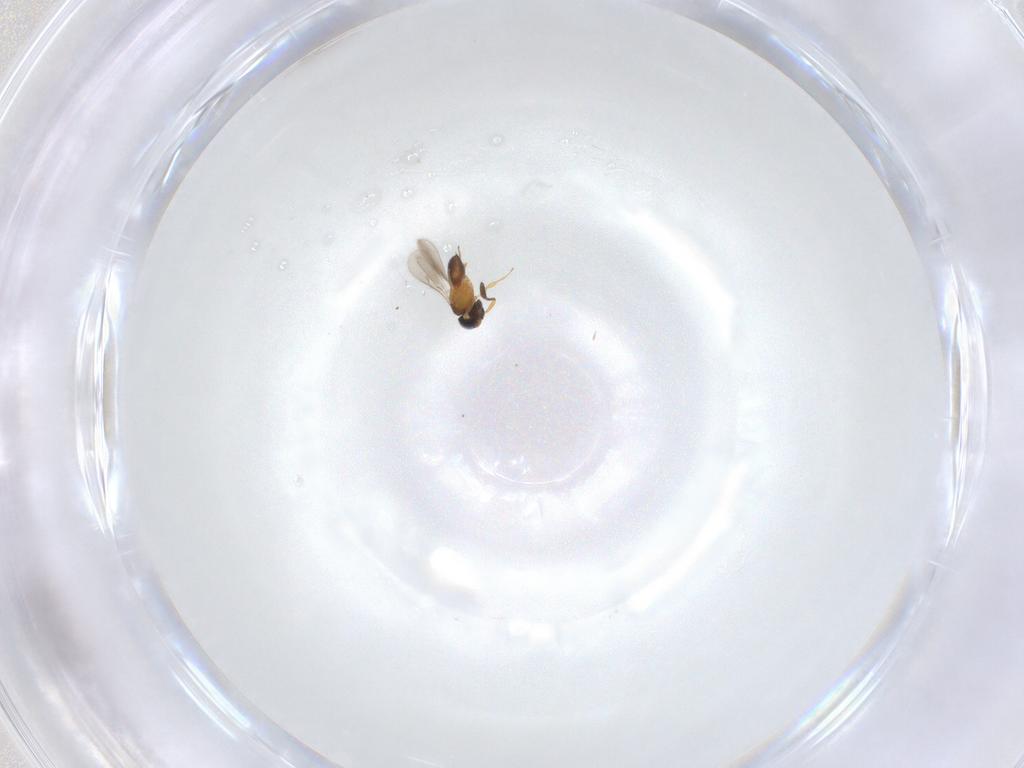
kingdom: Animalia
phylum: Arthropoda
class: Insecta
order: Hymenoptera
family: Scelionidae
